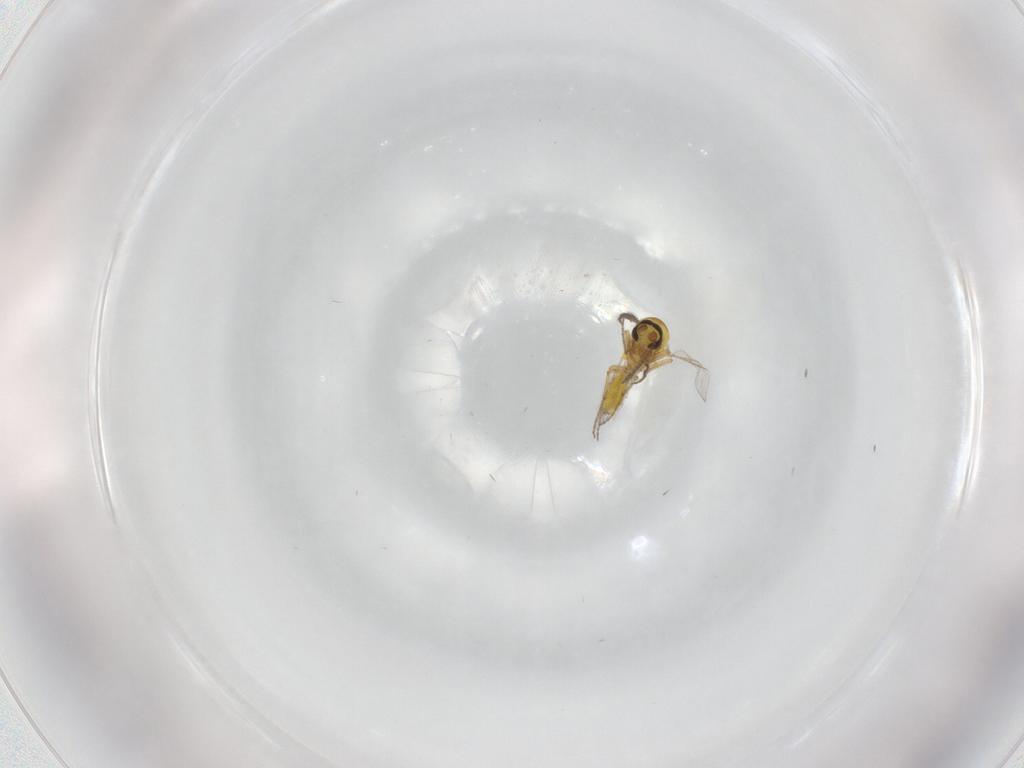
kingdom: Animalia
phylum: Arthropoda
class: Insecta
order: Diptera
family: Ceratopogonidae
